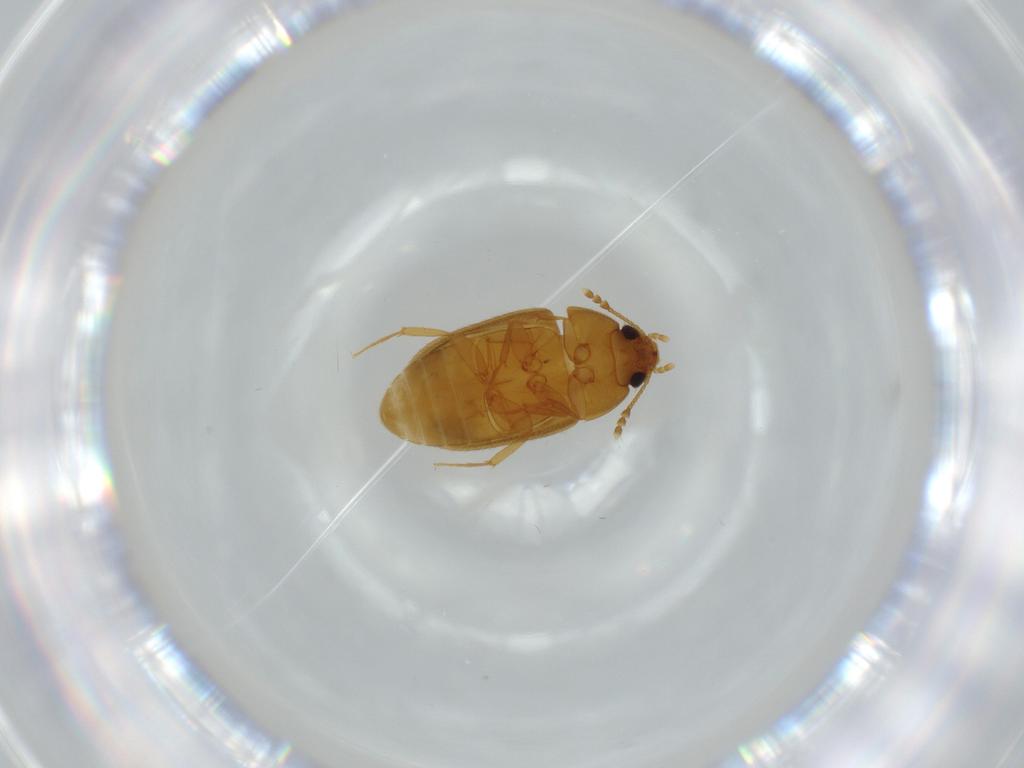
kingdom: Animalia
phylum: Arthropoda
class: Insecta
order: Coleoptera
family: Mycetophagidae
